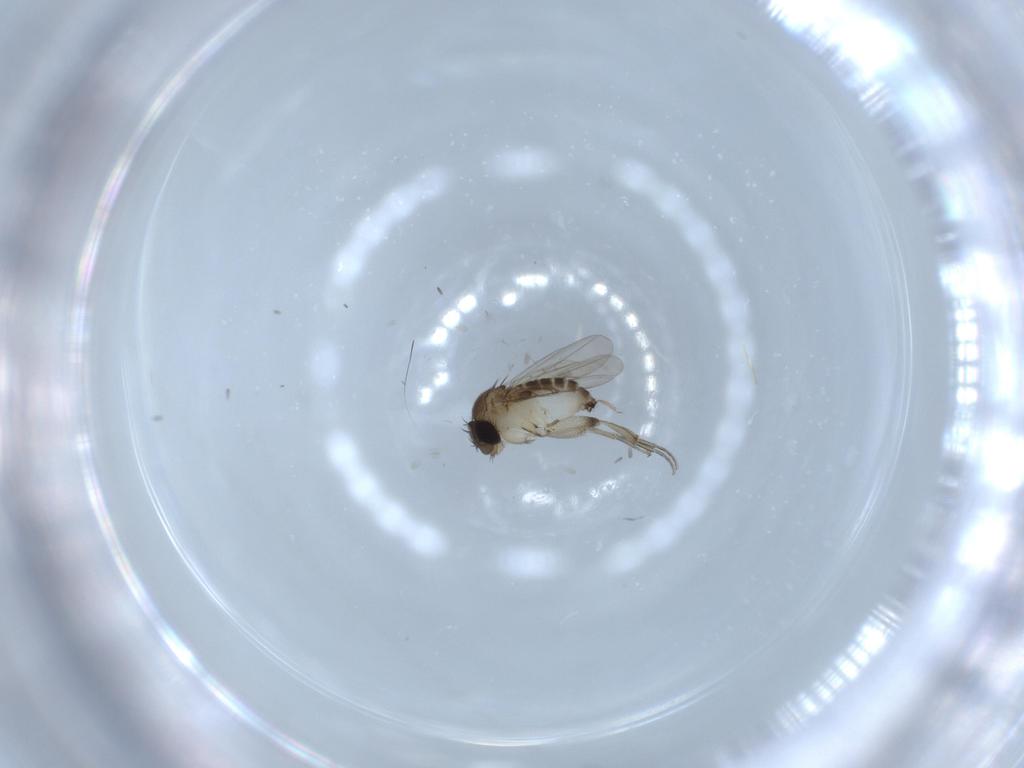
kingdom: Animalia
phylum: Arthropoda
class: Insecta
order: Diptera
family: Phoridae
